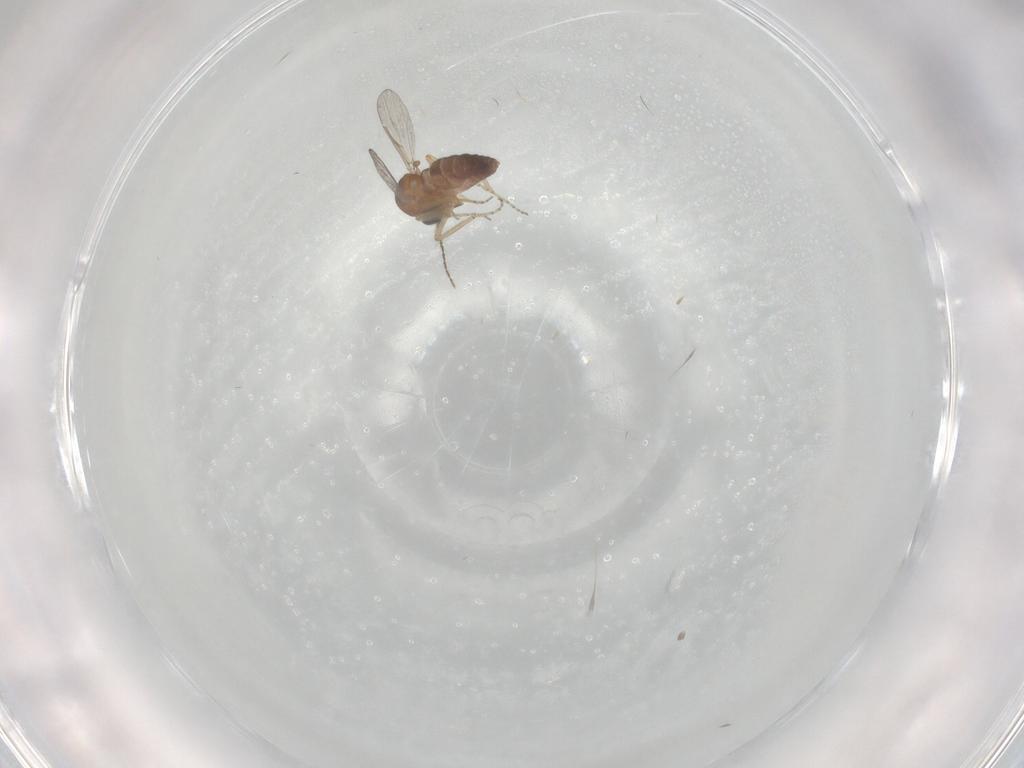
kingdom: Animalia
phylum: Arthropoda
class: Insecta
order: Diptera
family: Ceratopogonidae
